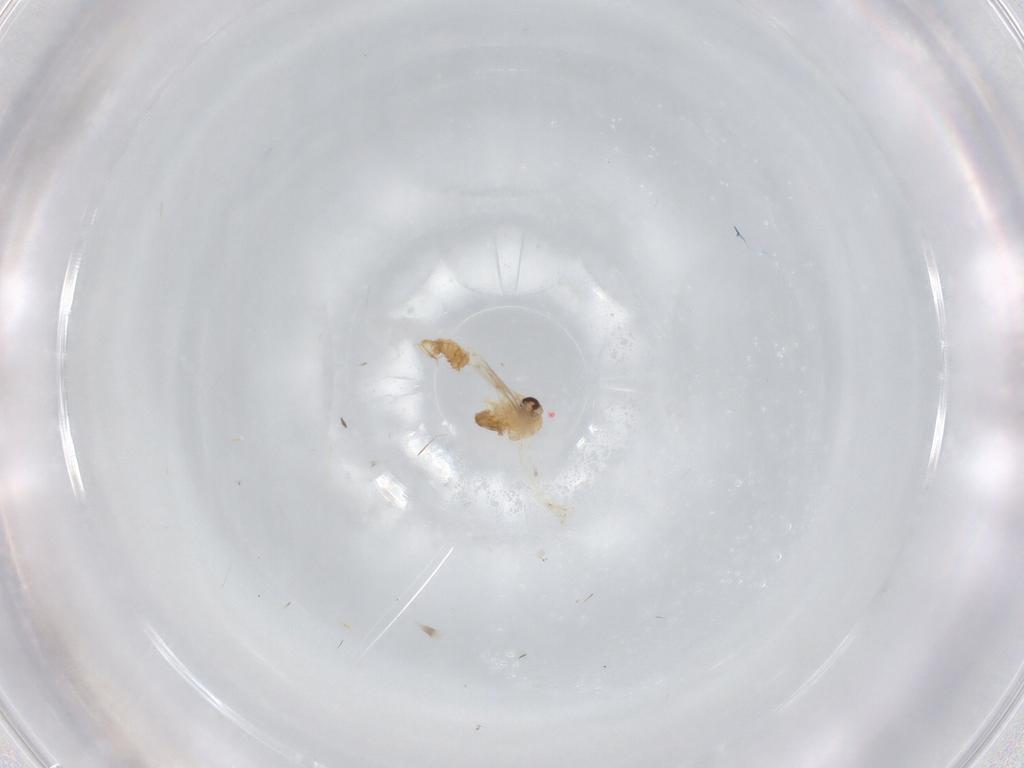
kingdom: Animalia
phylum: Arthropoda
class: Insecta
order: Diptera
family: Psychodidae
